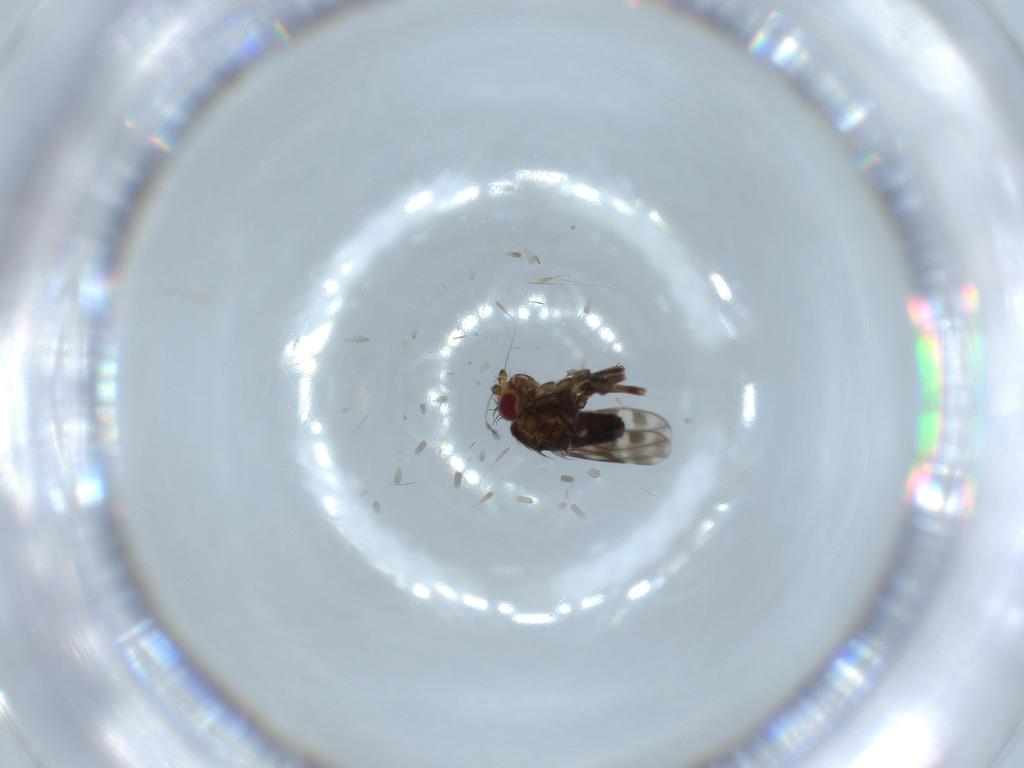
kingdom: Animalia
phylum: Arthropoda
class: Insecta
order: Diptera
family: Sphaeroceridae
